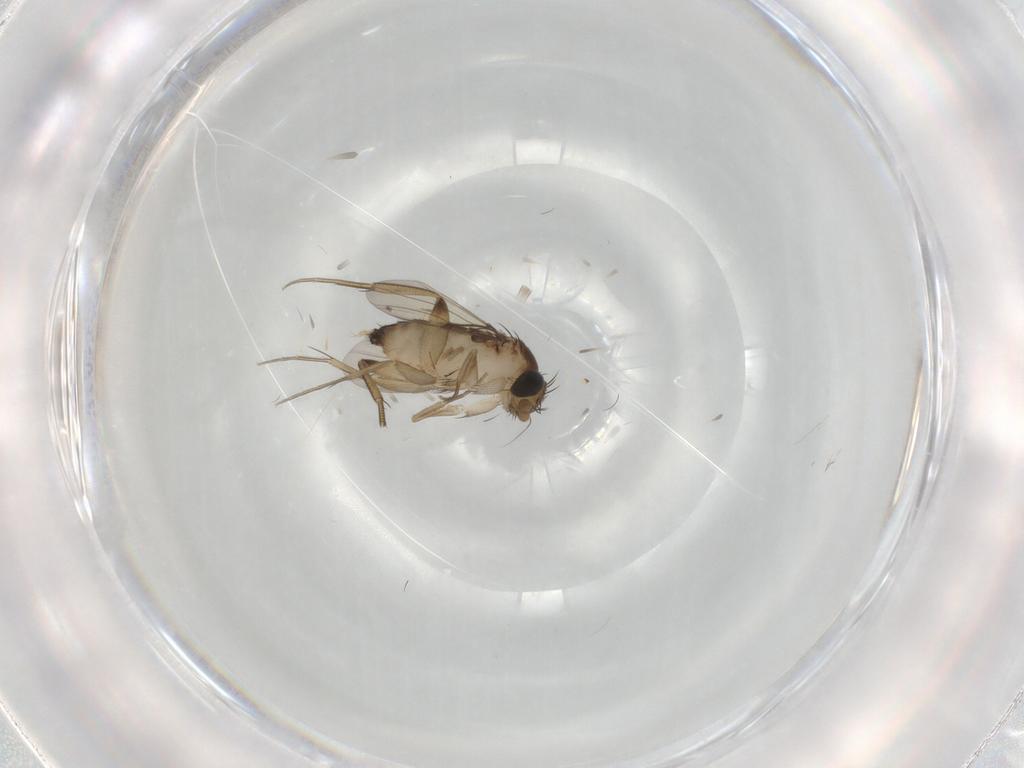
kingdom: Animalia
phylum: Arthropoda
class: Insecta
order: Diptera
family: Phoridae
